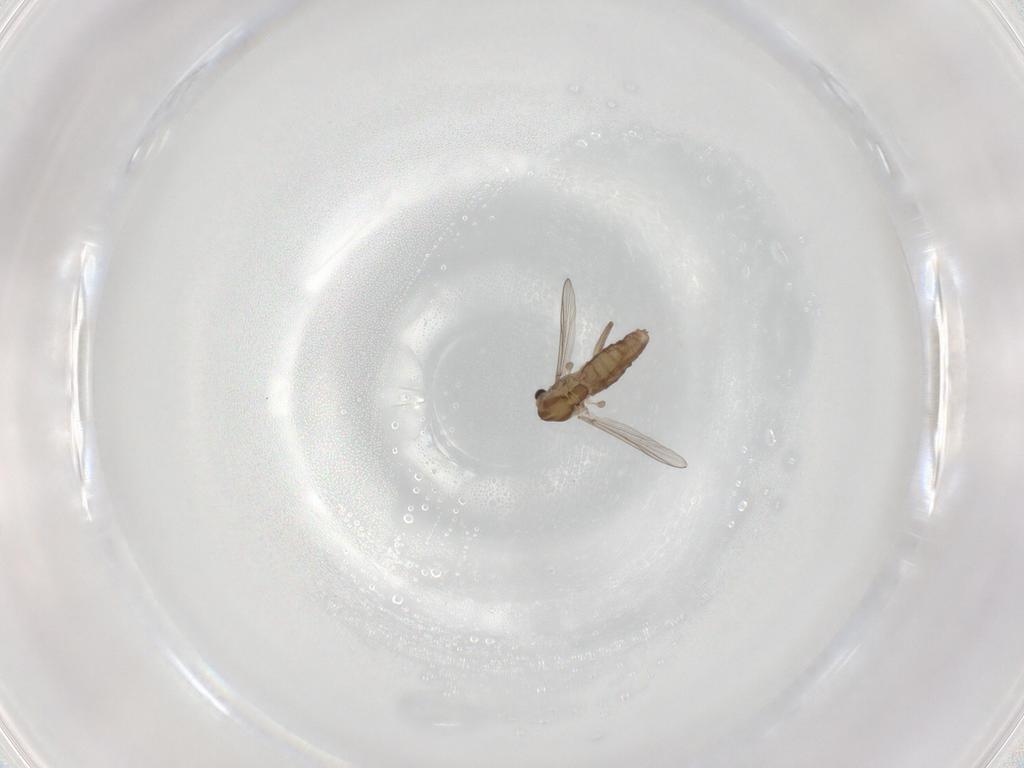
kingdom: Animalia
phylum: Arthropoda
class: Insecta
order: Diptera
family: Chironomidae
